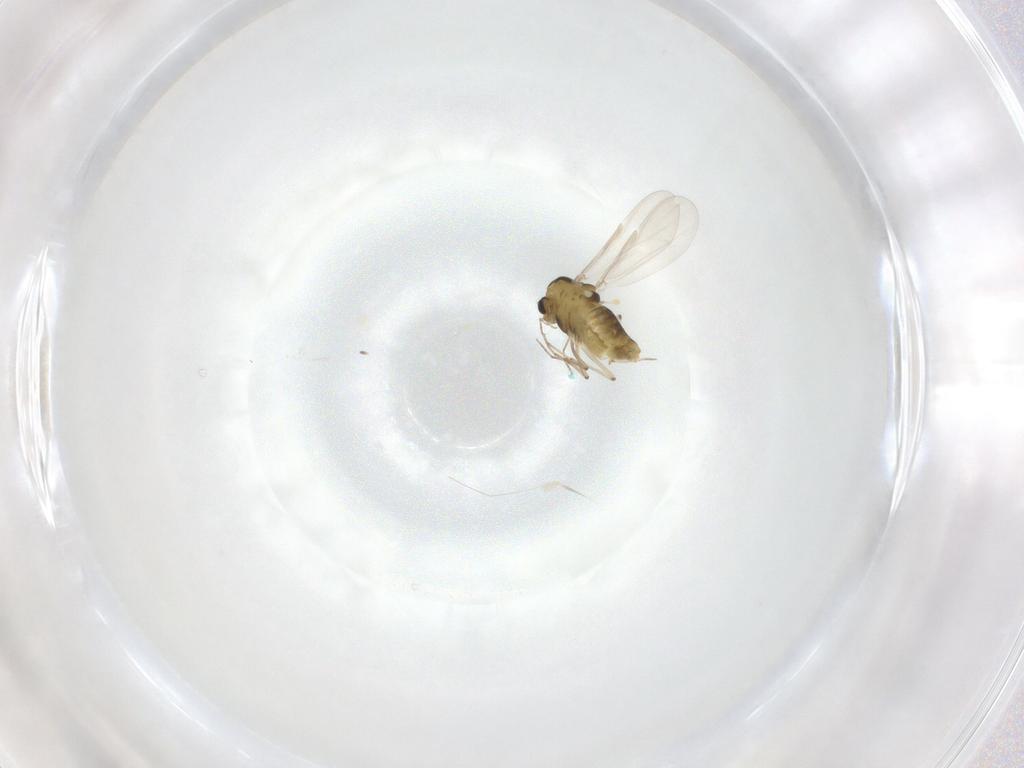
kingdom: Animalia
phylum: Arthropoda
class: Insecta
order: Diptera
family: Chironomidae
